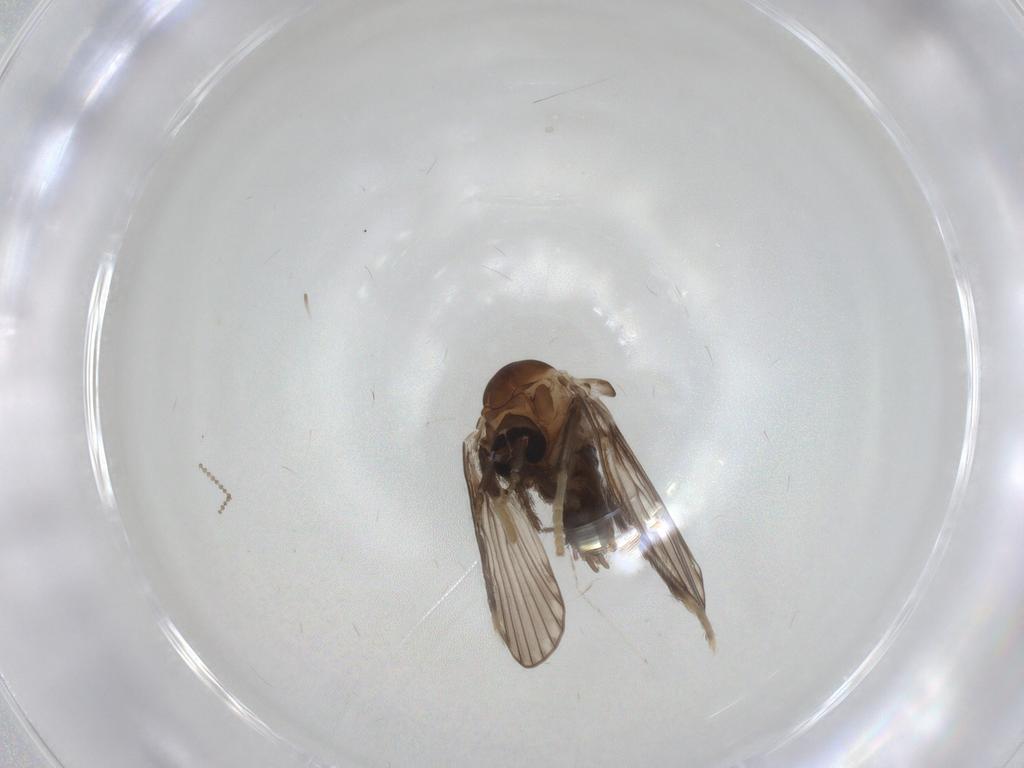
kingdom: Animalia
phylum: Arthropoda
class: Insecta
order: Diptera
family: Psychodidae
